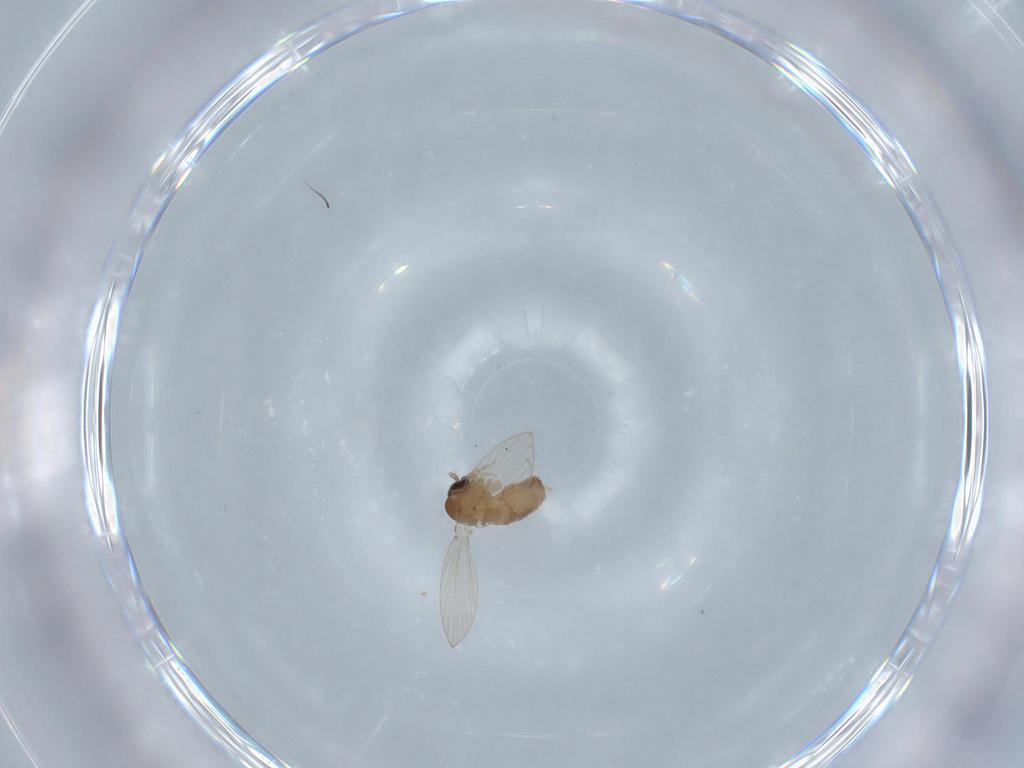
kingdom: Animalia
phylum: Arthropoda
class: Insecta
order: Diptera
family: Psychodidae
